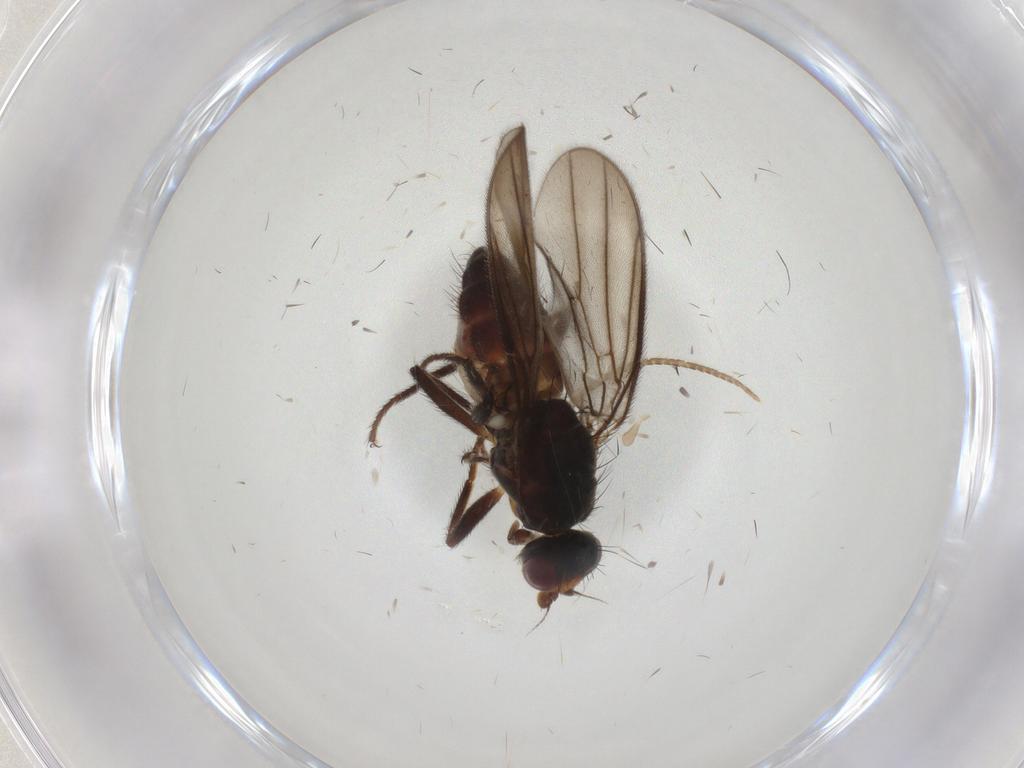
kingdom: Animalia
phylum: Arthropoda
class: Insecta
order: Diptera
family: Chloropidae
